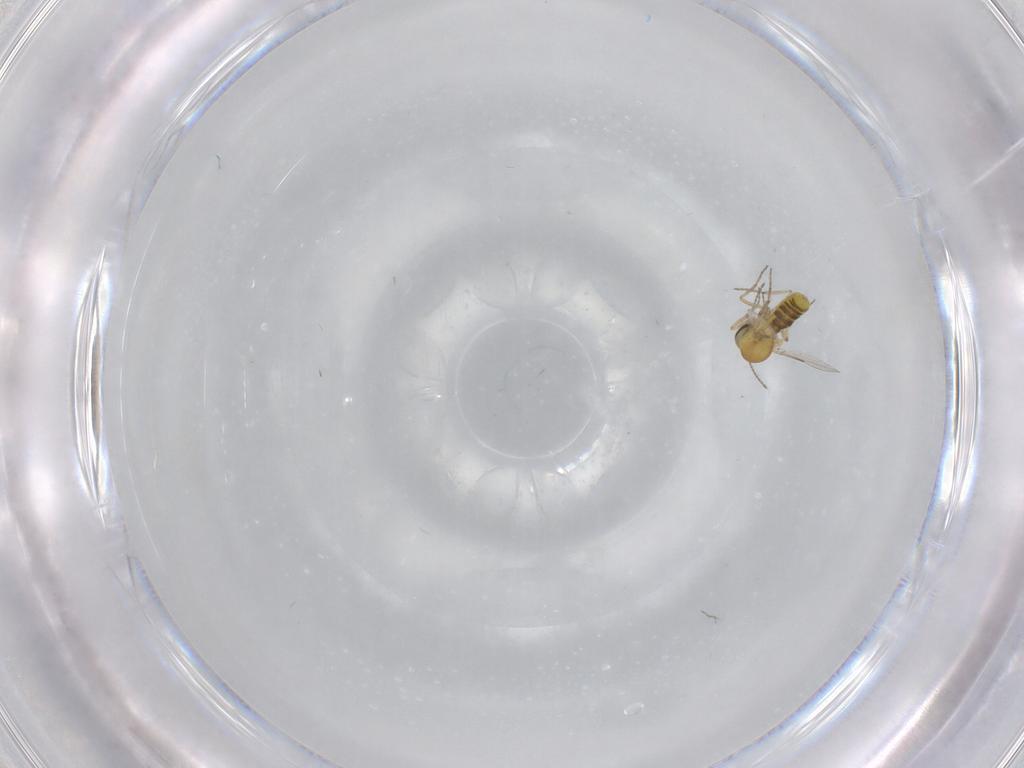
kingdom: Animalia
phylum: Arthropoda
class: Insecta
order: Diptera
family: Ceratopogonidae
